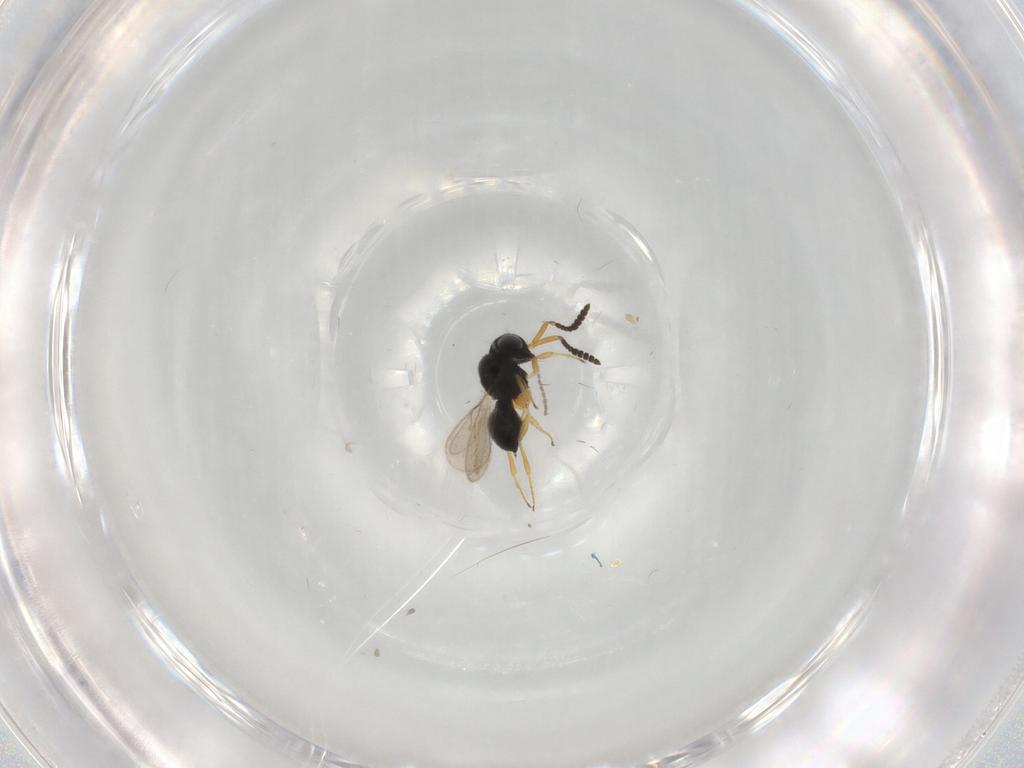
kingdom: Animalia
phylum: Arthropoda
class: Insecta
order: Hymenoptera
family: Scelionidae
